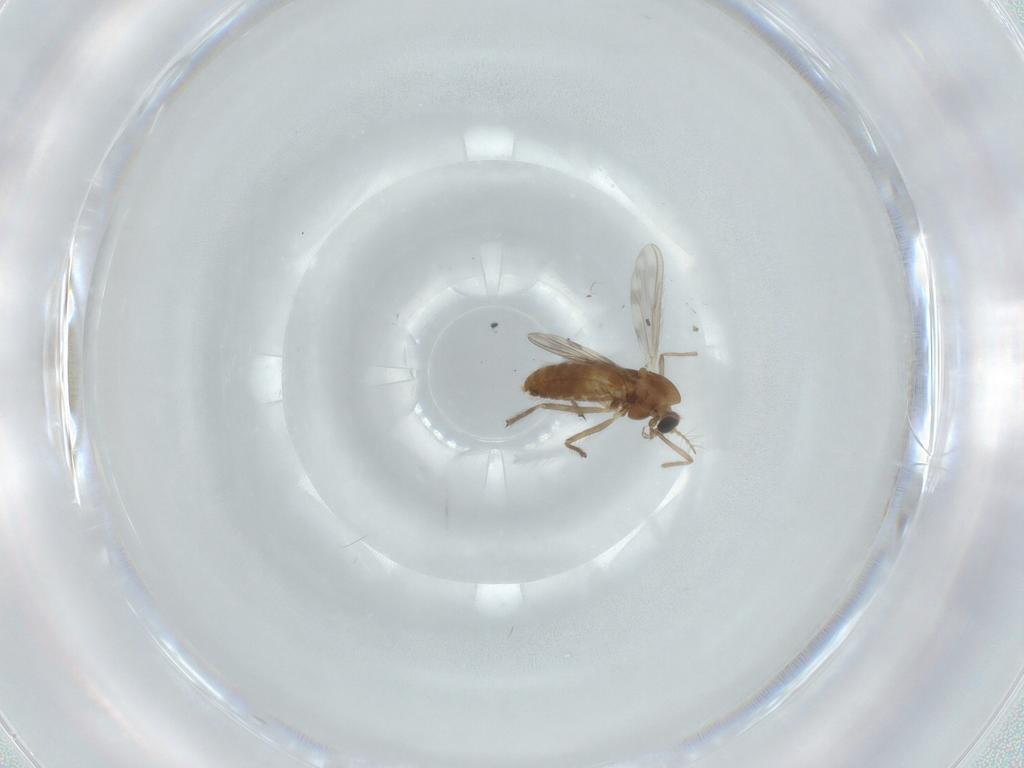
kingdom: Animalia
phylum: Arthropoda
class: Insecta
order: Diptera
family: Chironomidae
